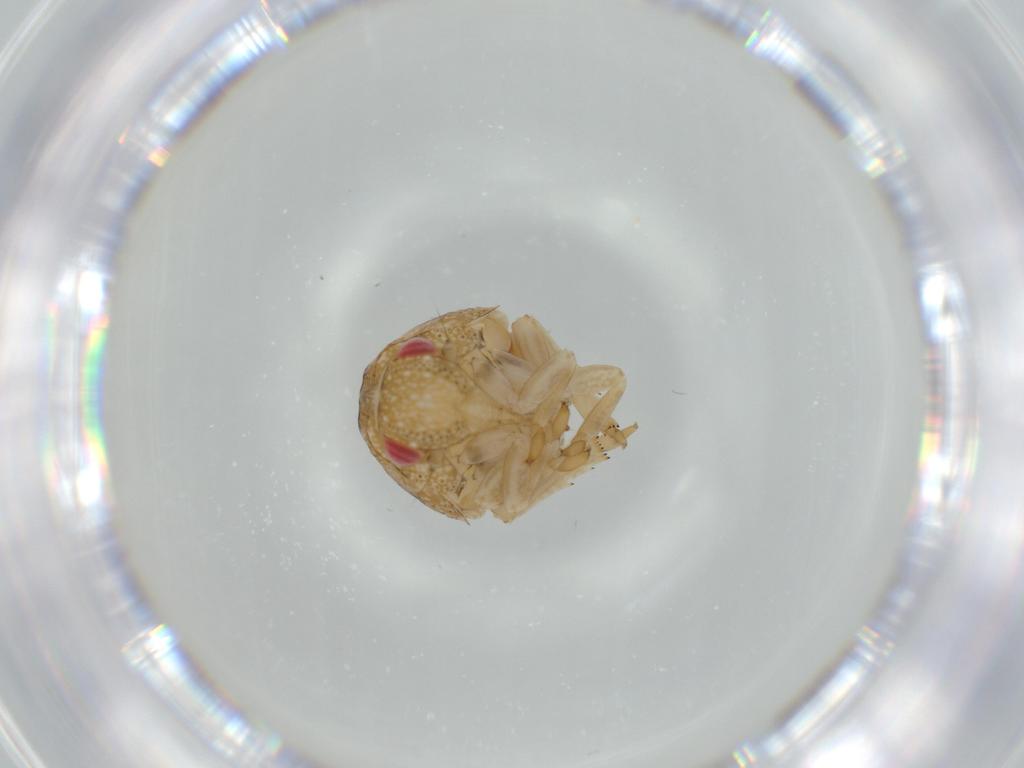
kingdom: Animalia
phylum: Arthropoda
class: Insecta
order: Hemiptera
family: Acanaloniidae
